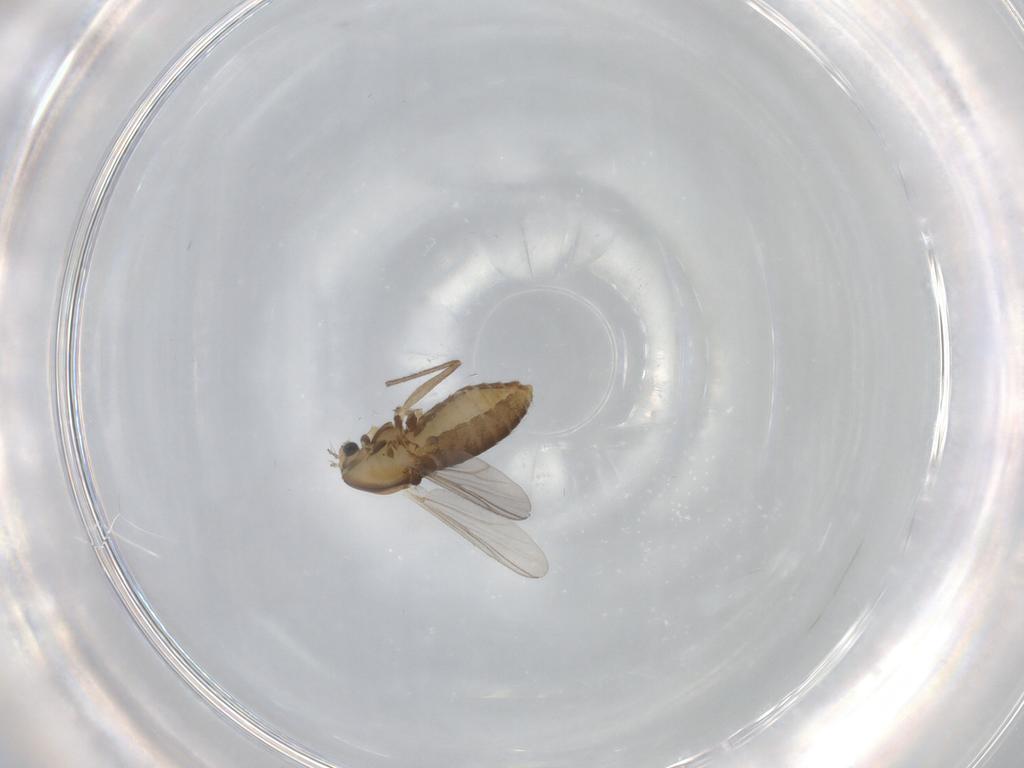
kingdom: Animalia
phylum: Arthropoda
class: Insecta
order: Diptera
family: Chironomidae
